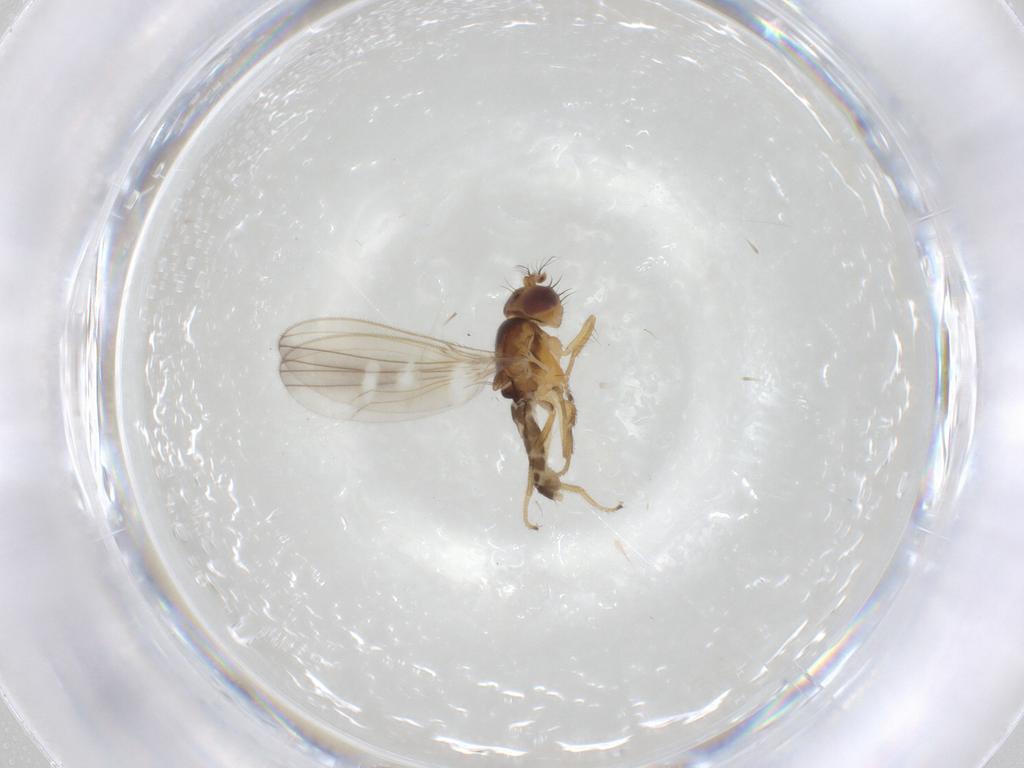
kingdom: Animalia
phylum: Arthropoda
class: Insecta
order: Diptera
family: Periscelididae
